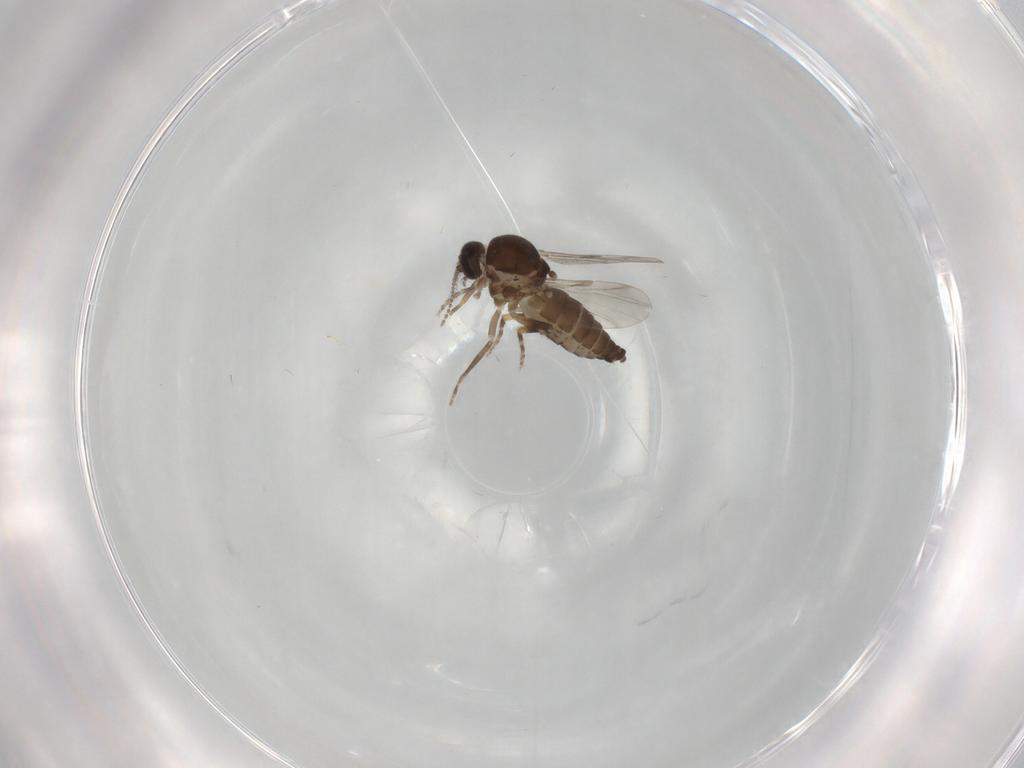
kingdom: Animalia
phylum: Arthropoda
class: Insecta
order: Diptera
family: Ceratopogonidae
